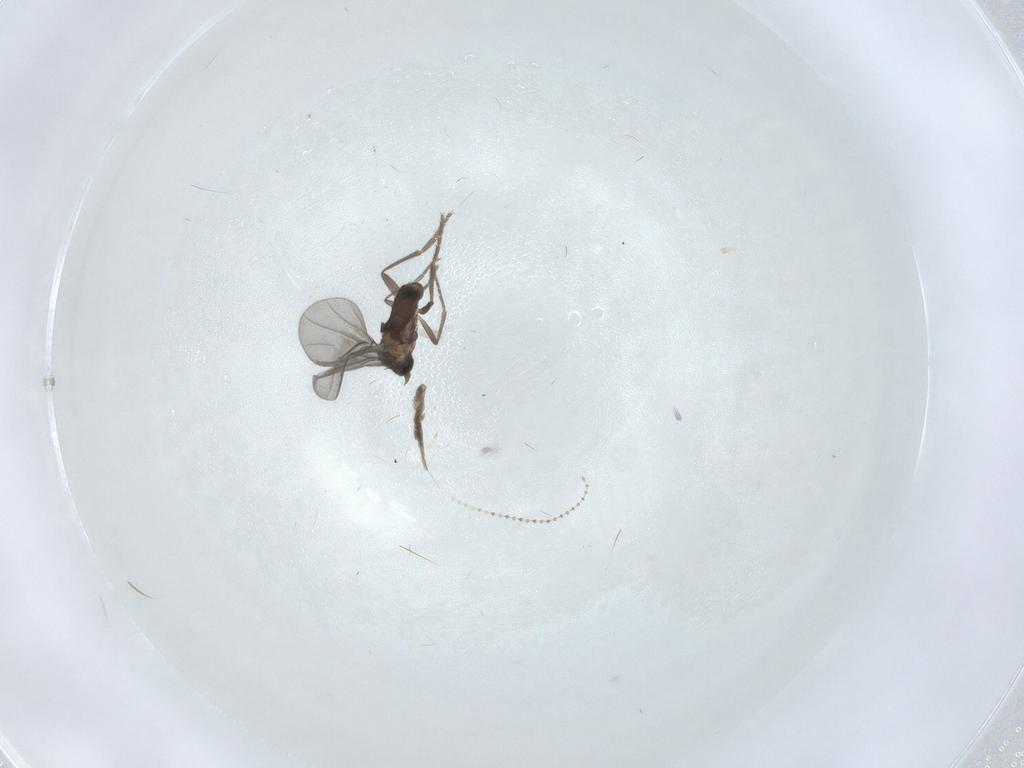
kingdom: Animalia
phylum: Arthropoda
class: Insecta
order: Diptera
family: Phoridae
